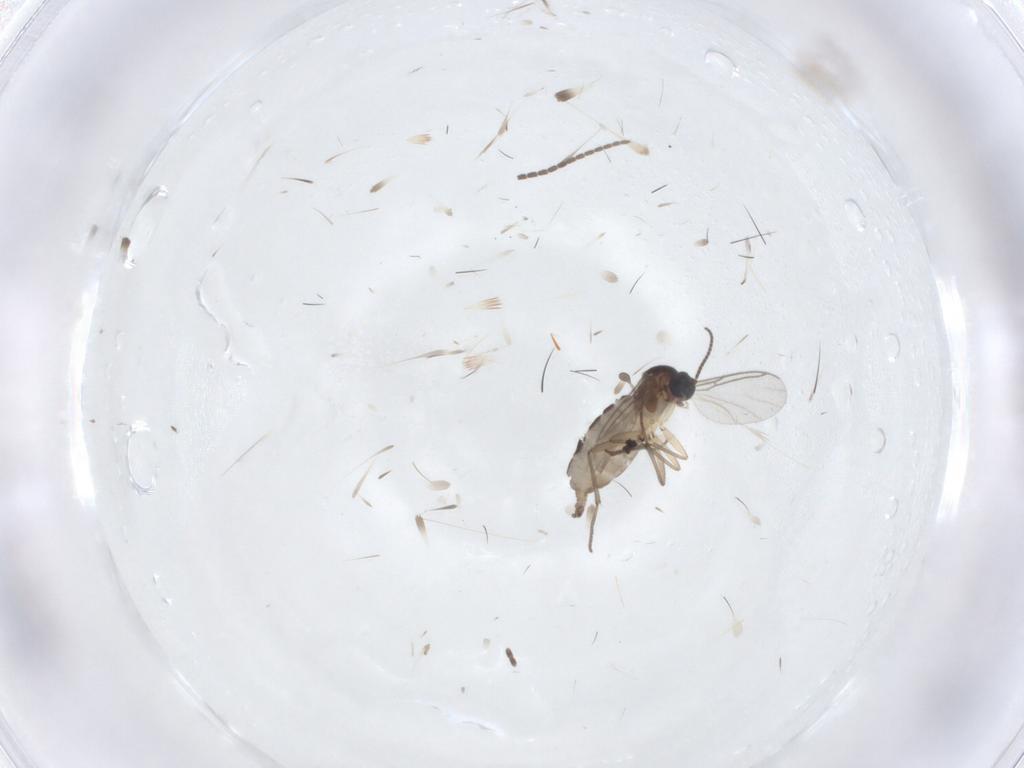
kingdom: Animalia
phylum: Arthropoda
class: Insecta
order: Diptera
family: Sciaridae
